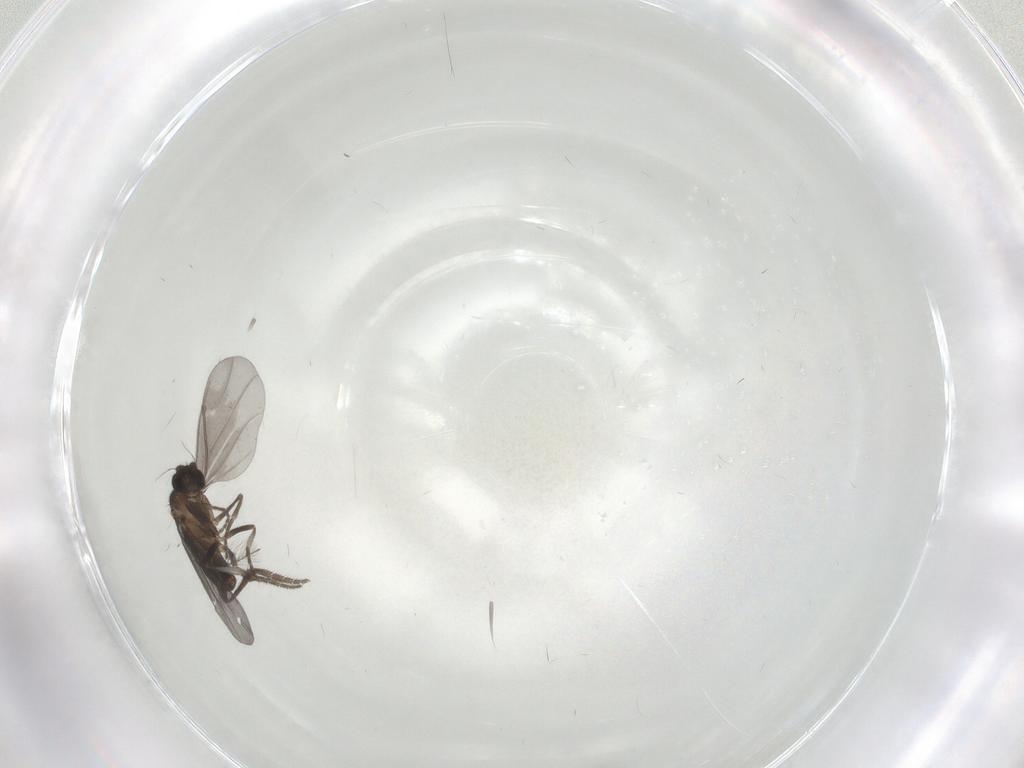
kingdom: Animalia
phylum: Arthropoda
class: Insecta
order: Diptera
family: Phoridae
